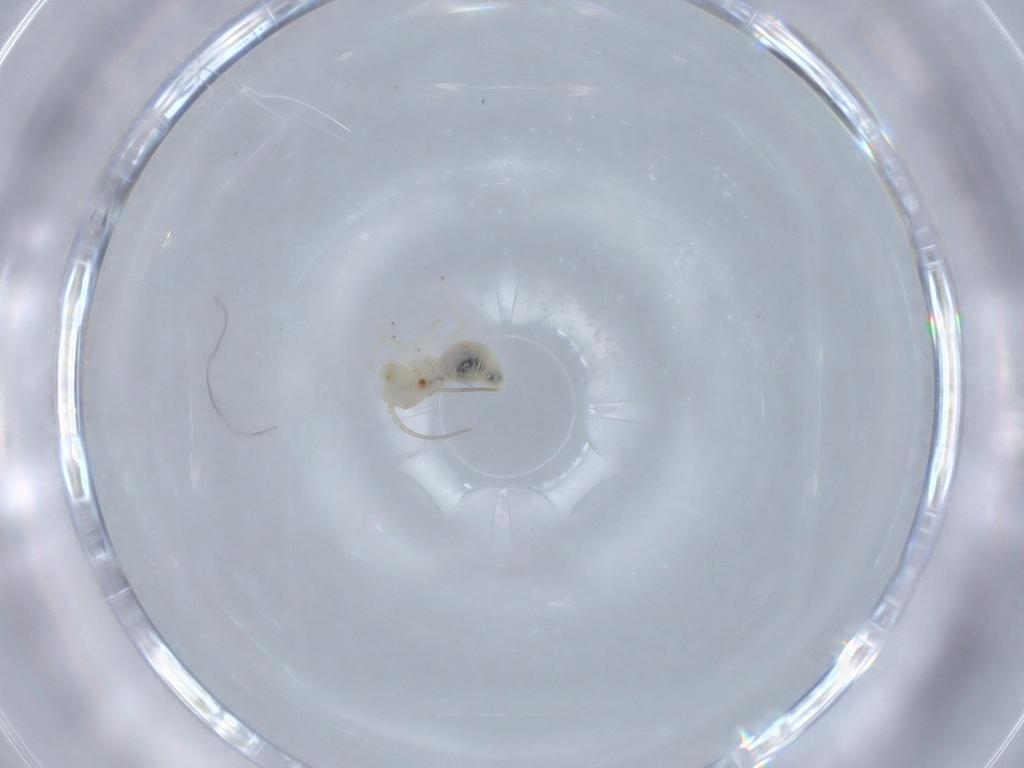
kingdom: Animalia
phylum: Arthropoda
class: Insecta
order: Psocodea
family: Caeciliusidae
